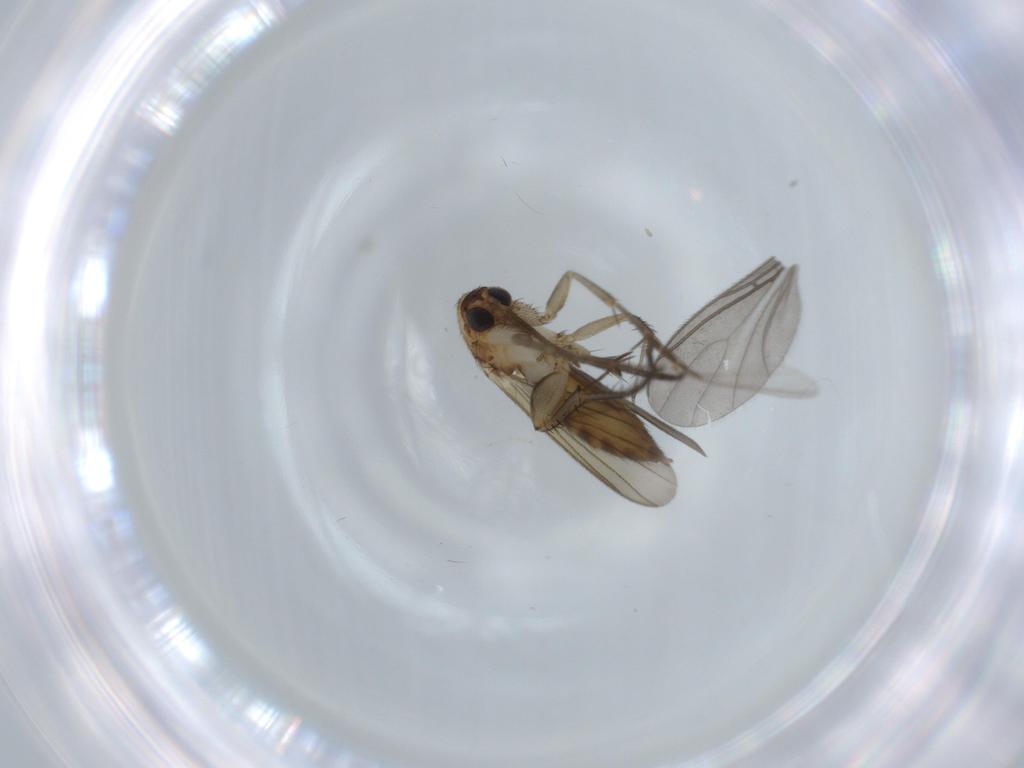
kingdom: Animalia
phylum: Arthropoda
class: Insecta
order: Diptera
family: Mycetophilidae
